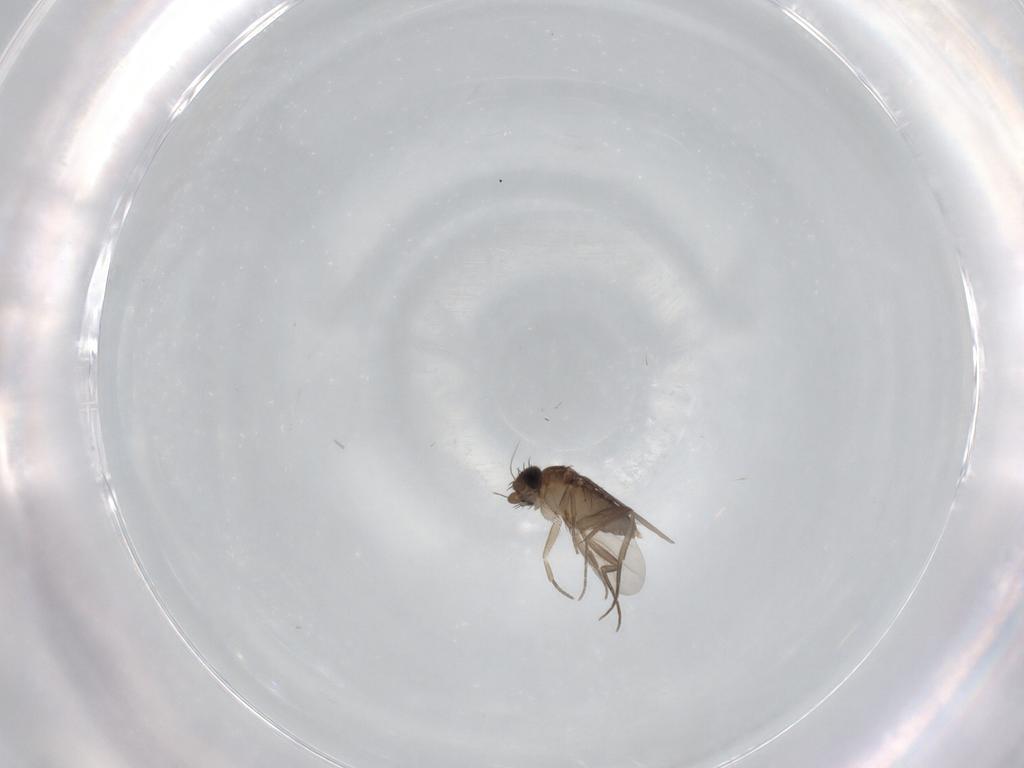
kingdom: Animalia
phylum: Arthropoda
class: Insecta
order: Diptera
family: Phoridae
